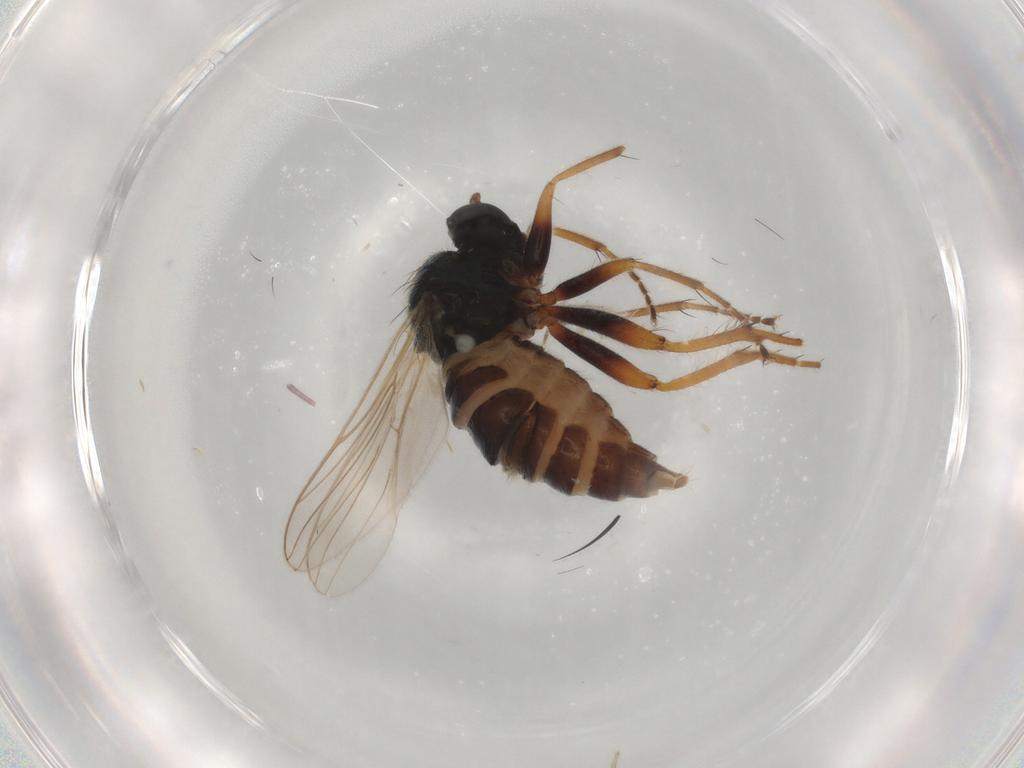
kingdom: Animalia
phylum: Arthropoda
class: Insecta
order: Diptera
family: Hybotidae
